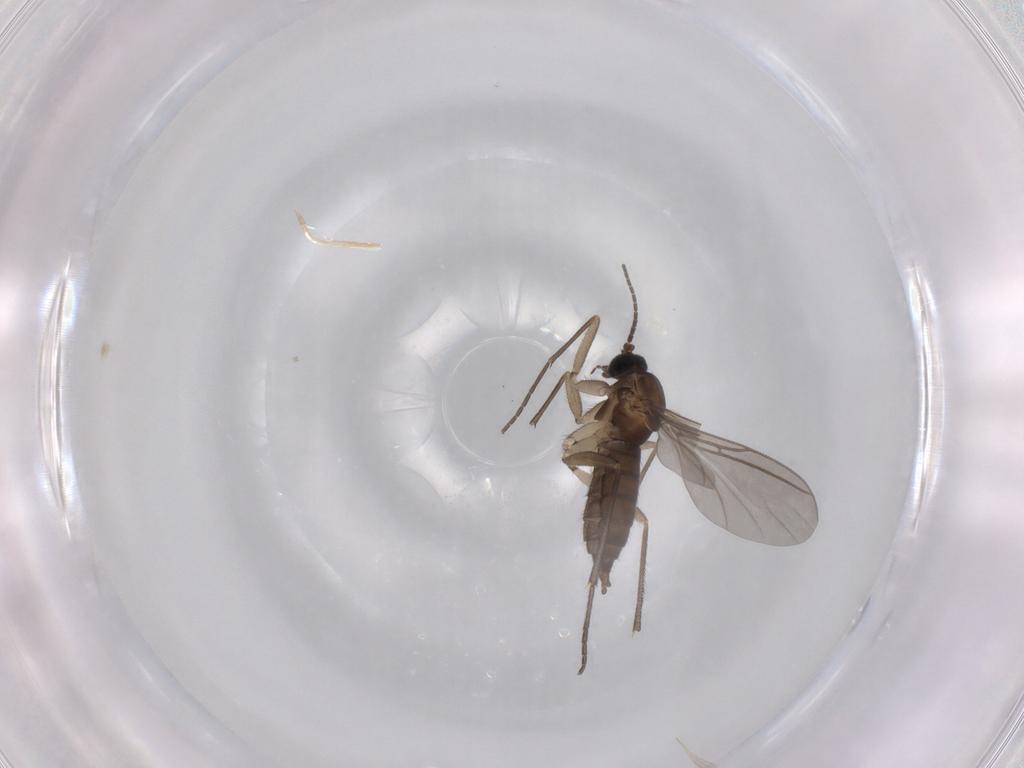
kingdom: Animalia
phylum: Arthropoda
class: Insecta
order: Diptera
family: Sciaridae
